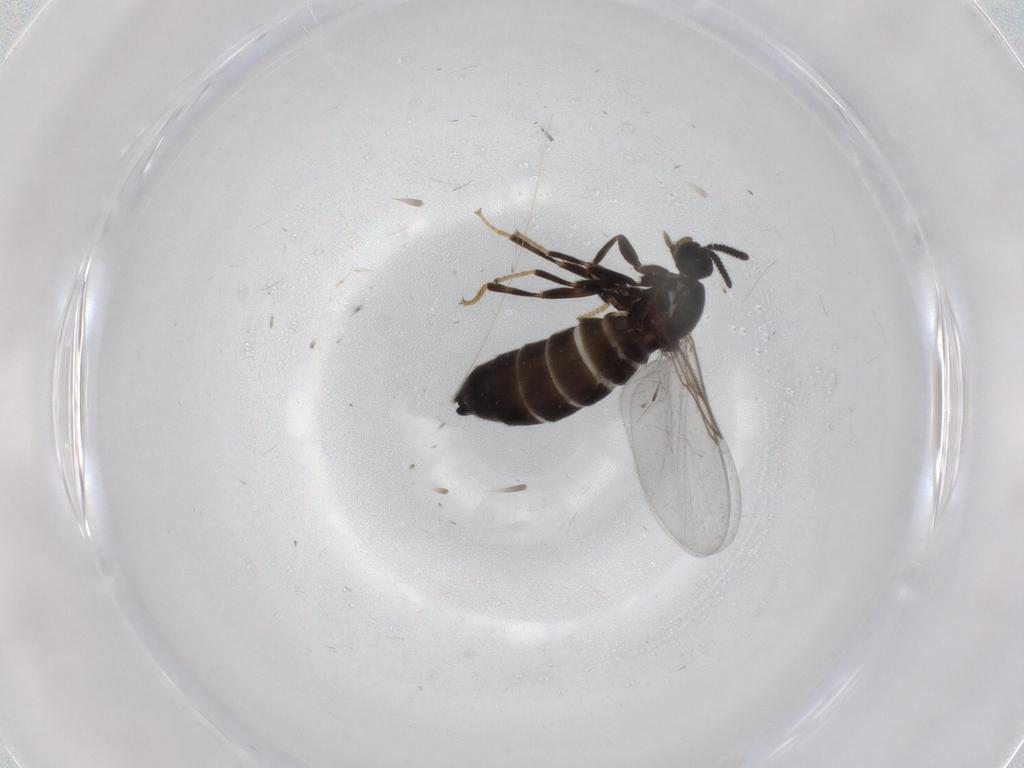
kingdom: Animalia
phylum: Arthropoda
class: Insecta
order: Diptera
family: Scatopsidae
